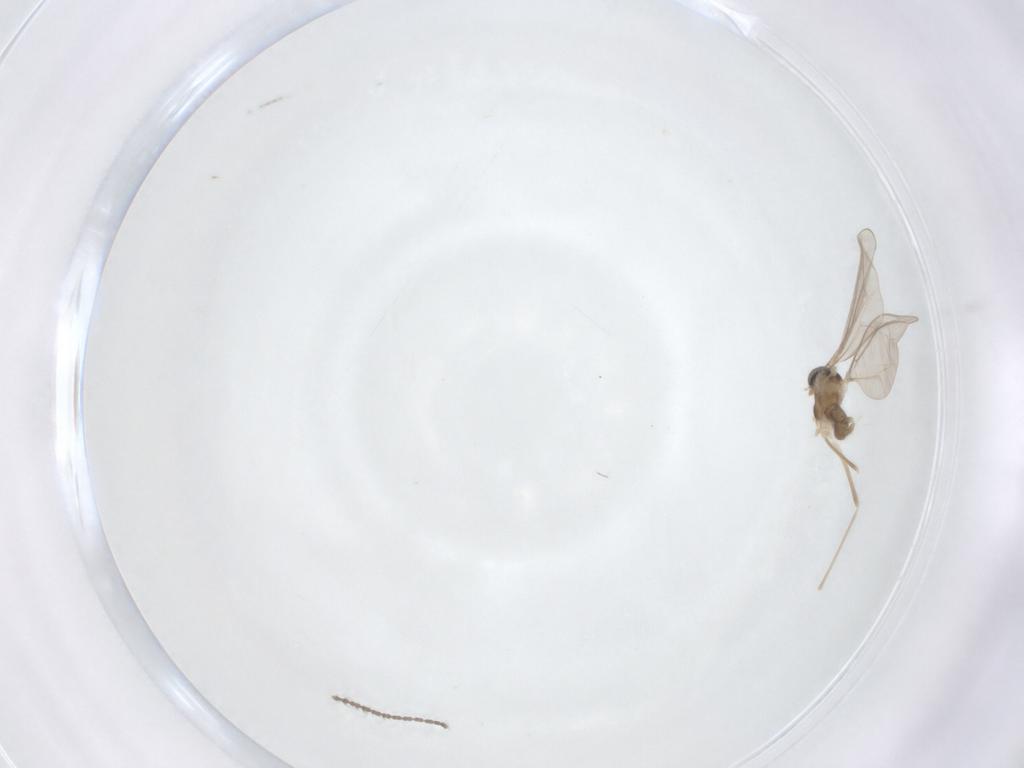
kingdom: Animalia
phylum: Arthropoda
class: Insecta
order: Diptera
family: Cecidomyiidae
